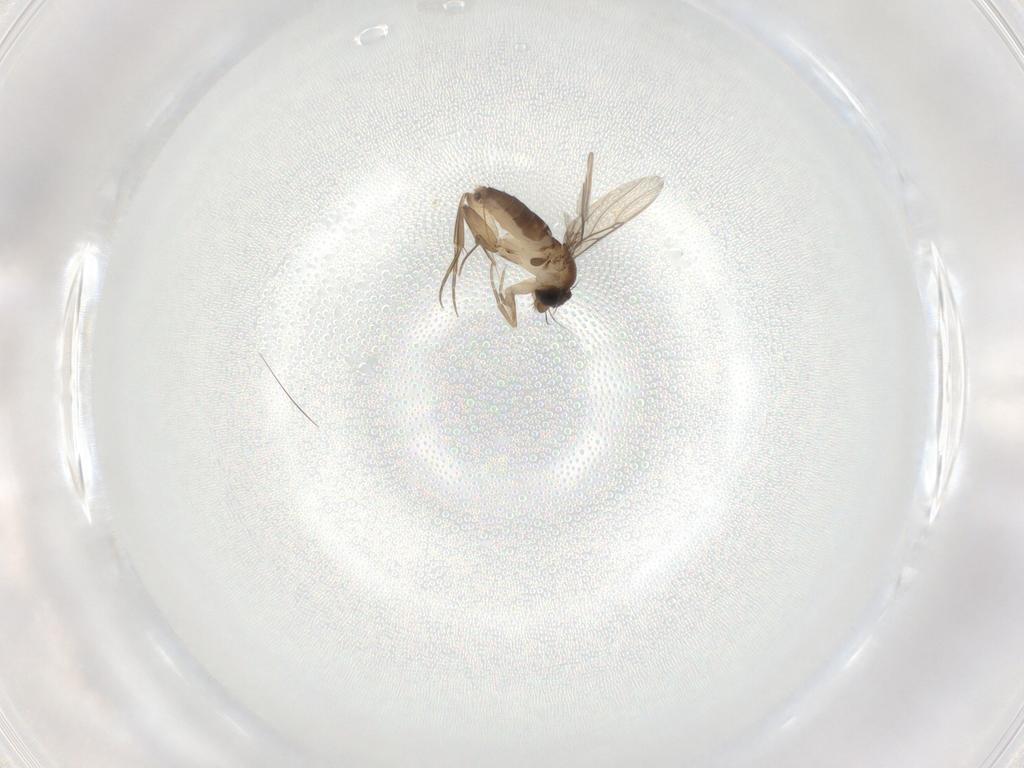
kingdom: Animalia
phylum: Arthropoda
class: Insecta
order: Diptera
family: Phoridae
